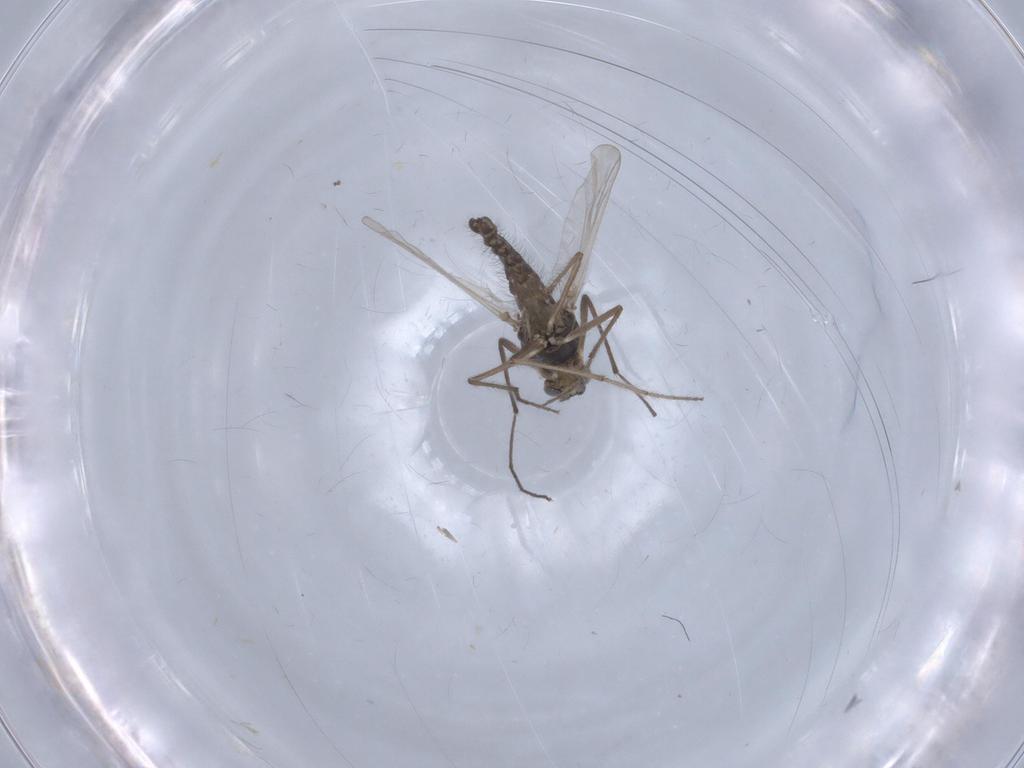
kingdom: Animalia
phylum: Arthropoda
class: Insecta
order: Diptera
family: Chironomidae
